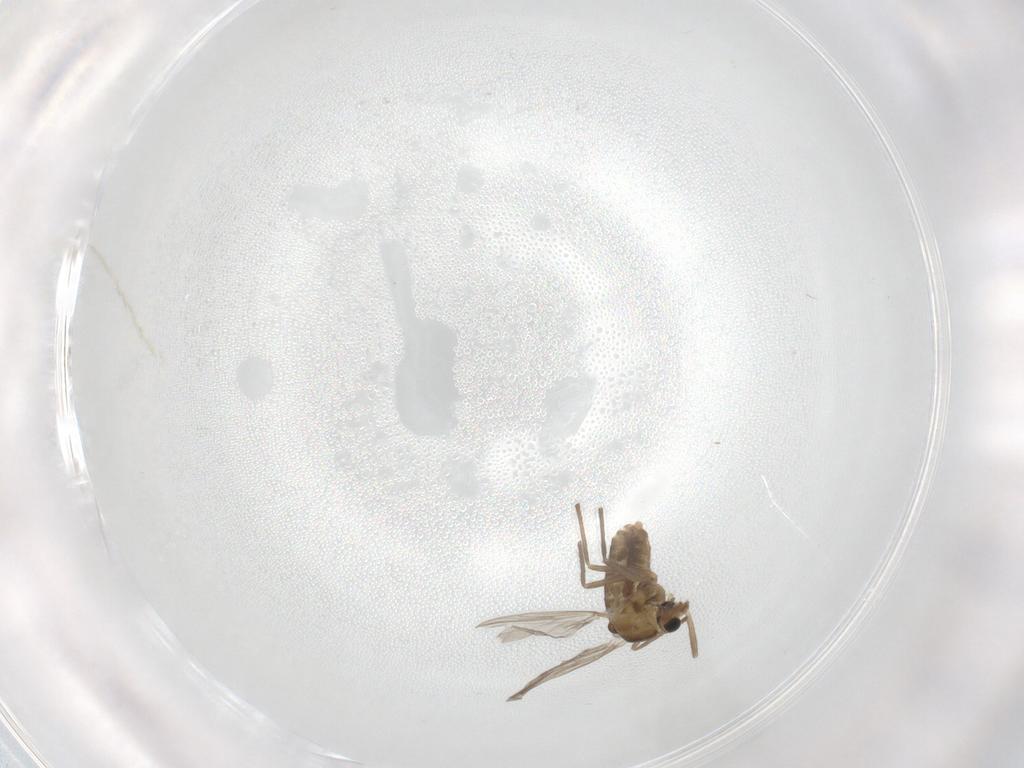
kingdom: Animalia
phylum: Arthropoda
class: Insecta
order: Diptera
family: Chironomidae
